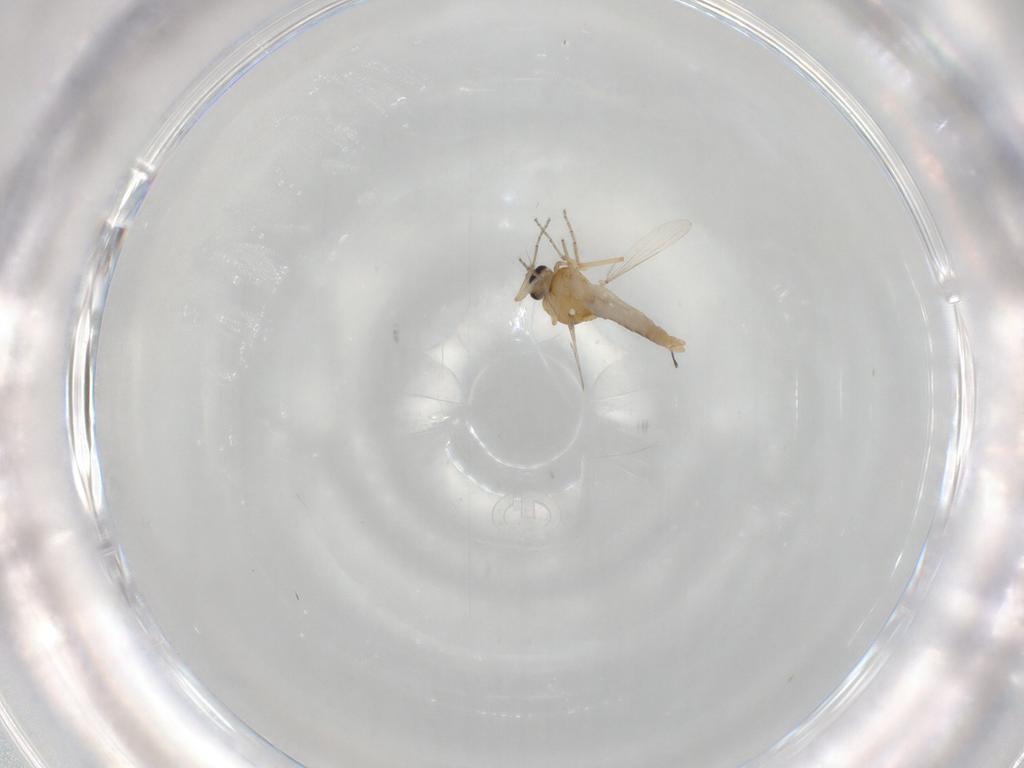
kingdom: Animalia
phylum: Arthropoda
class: Insecta
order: Diptera
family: Ceratopogonidae
